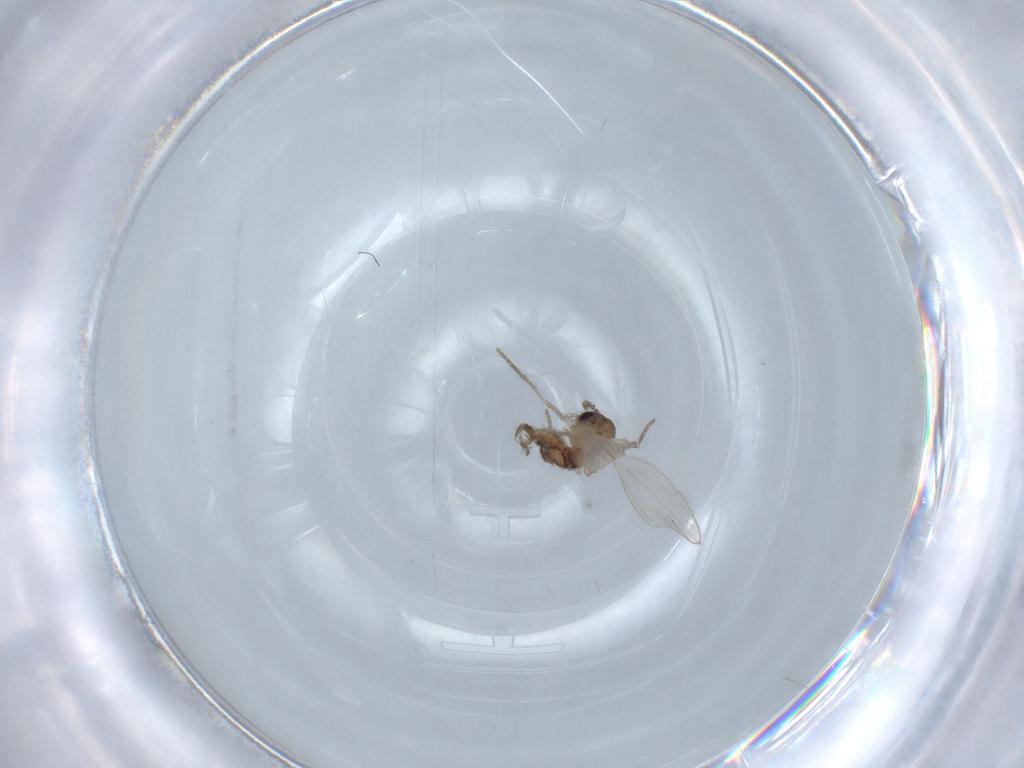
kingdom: Animalia
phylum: Arthropoda
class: Insecta
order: Diptera
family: Psychodidae
